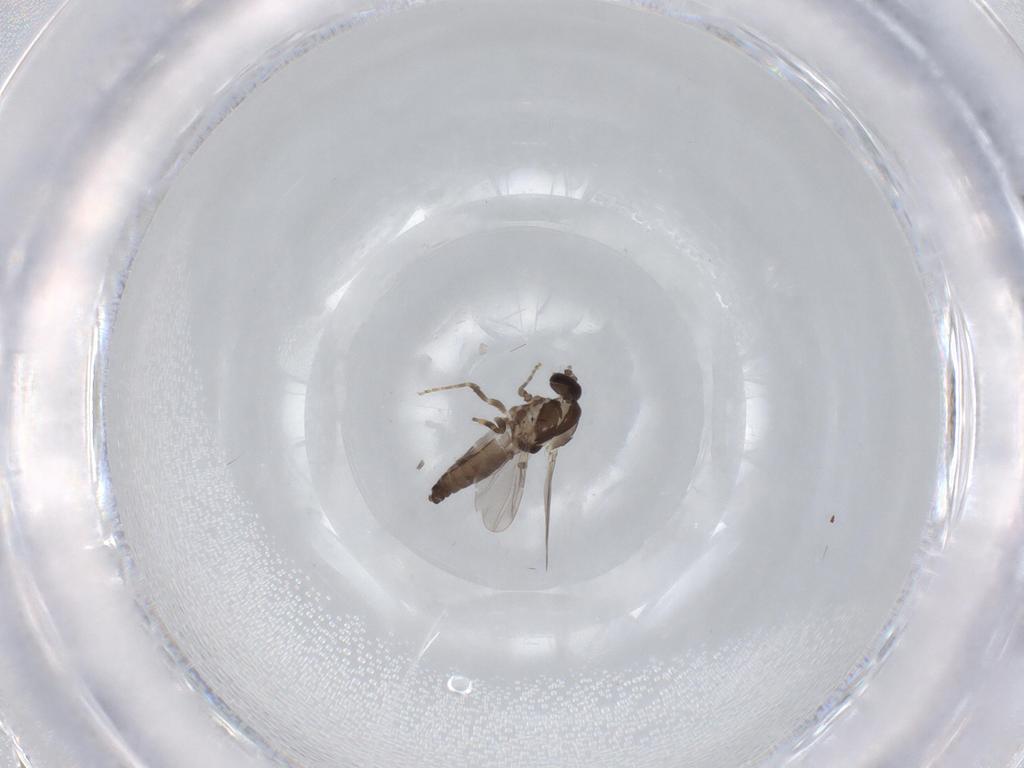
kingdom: Animalia
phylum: Arthropoda
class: Insecta
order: Diptera
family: Ceratopogonidae
